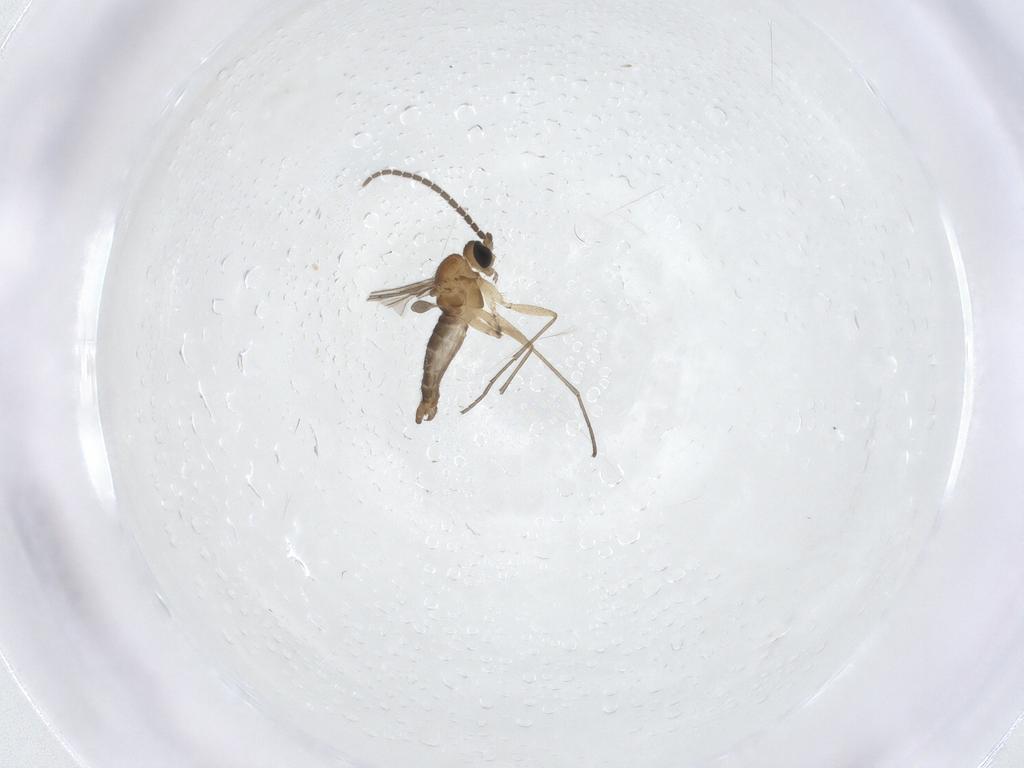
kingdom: Animalia
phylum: Arthropoda
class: Insecta
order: Diptera
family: Sciaridae
